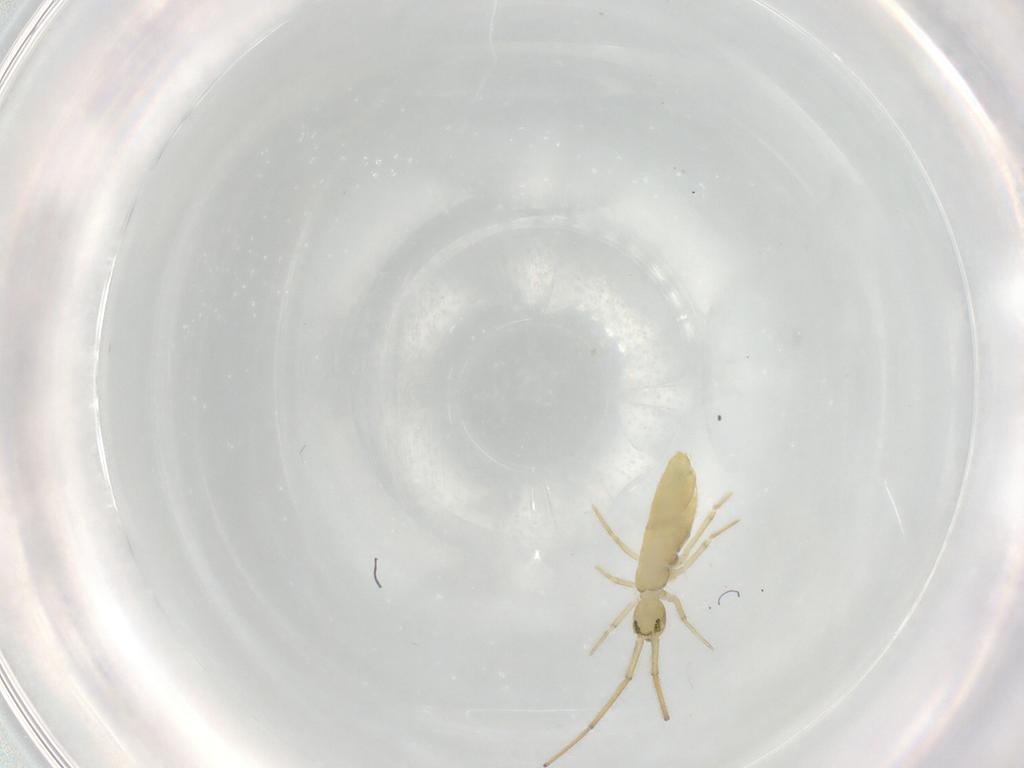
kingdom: Animalia
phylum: Arthropoda
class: Collembola
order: Entomobryomorpha
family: Paronellidae
